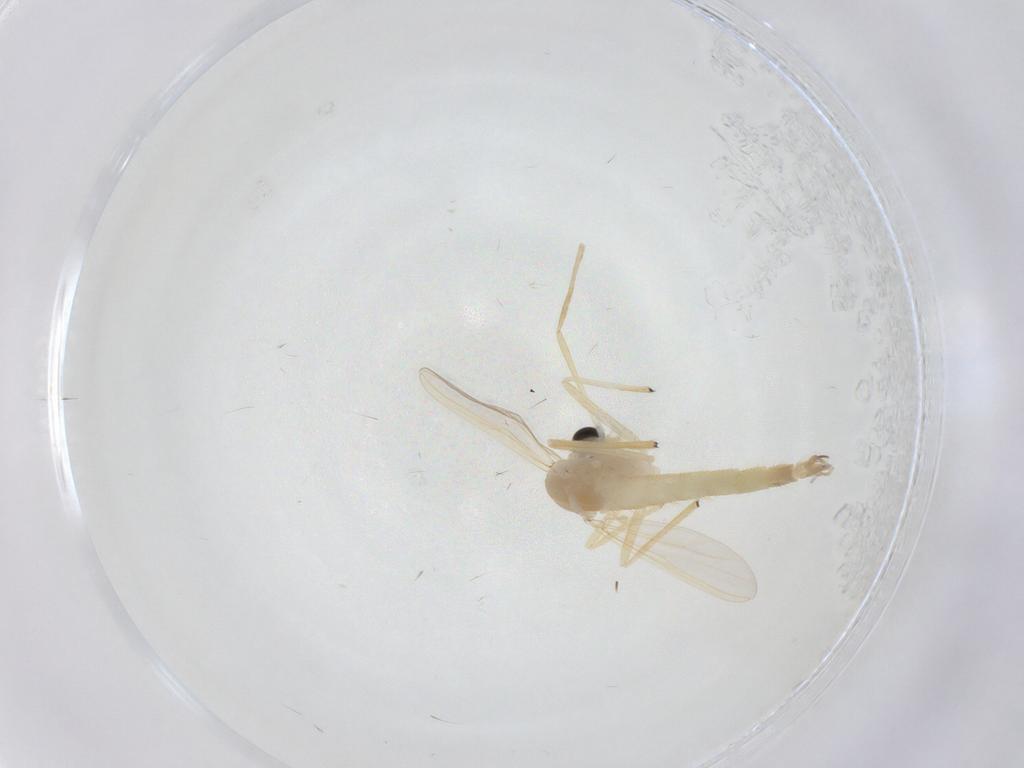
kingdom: Animalia
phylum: Arthropoda
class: Insecta
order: Diptera
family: Chironomidae
